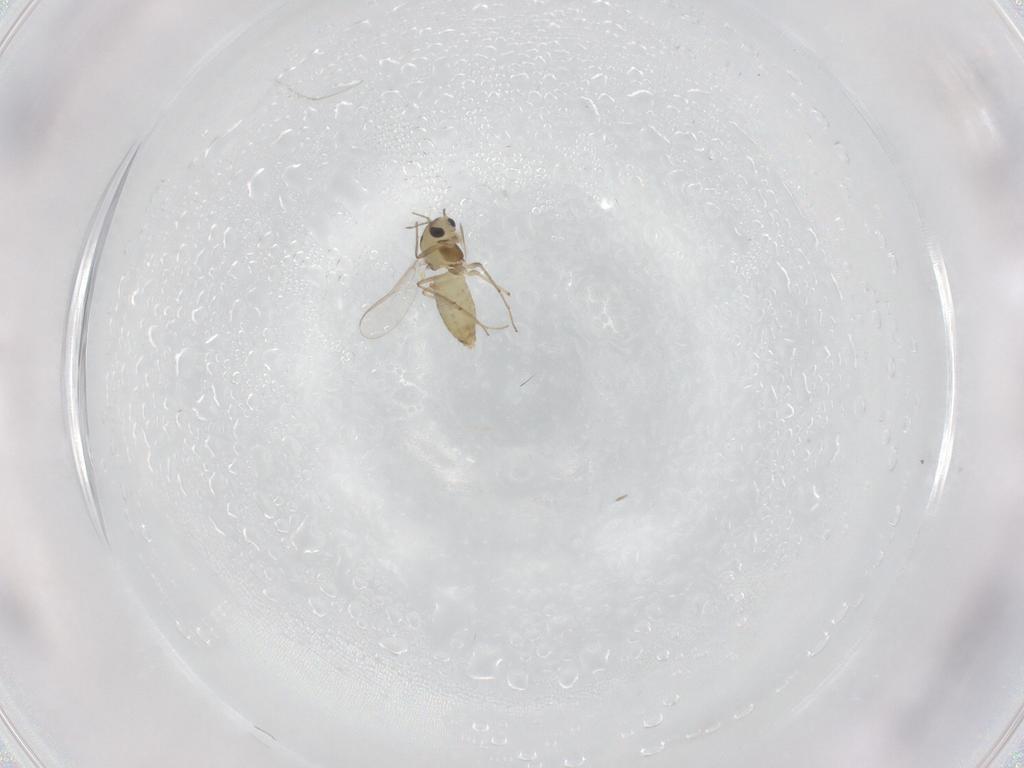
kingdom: Animalia
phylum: Arthropoda
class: Insecta
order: Diptera
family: Chironomidae
